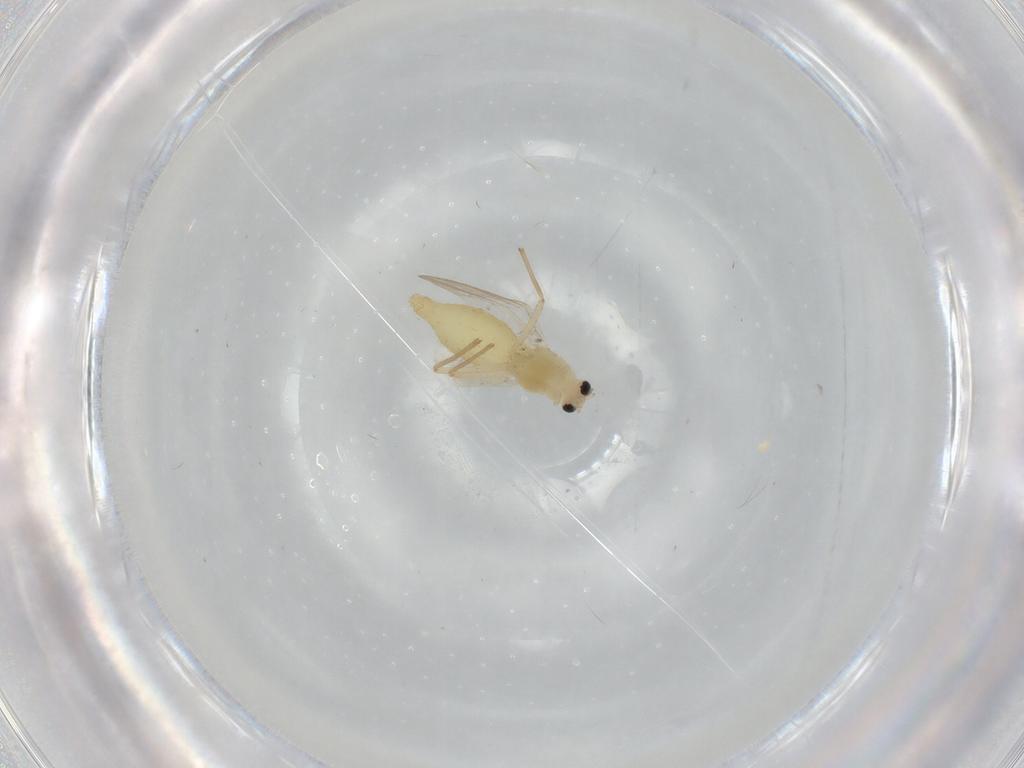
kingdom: Animalia
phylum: Arthropoda
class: Insecta
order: Diptera
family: Chironomidae
